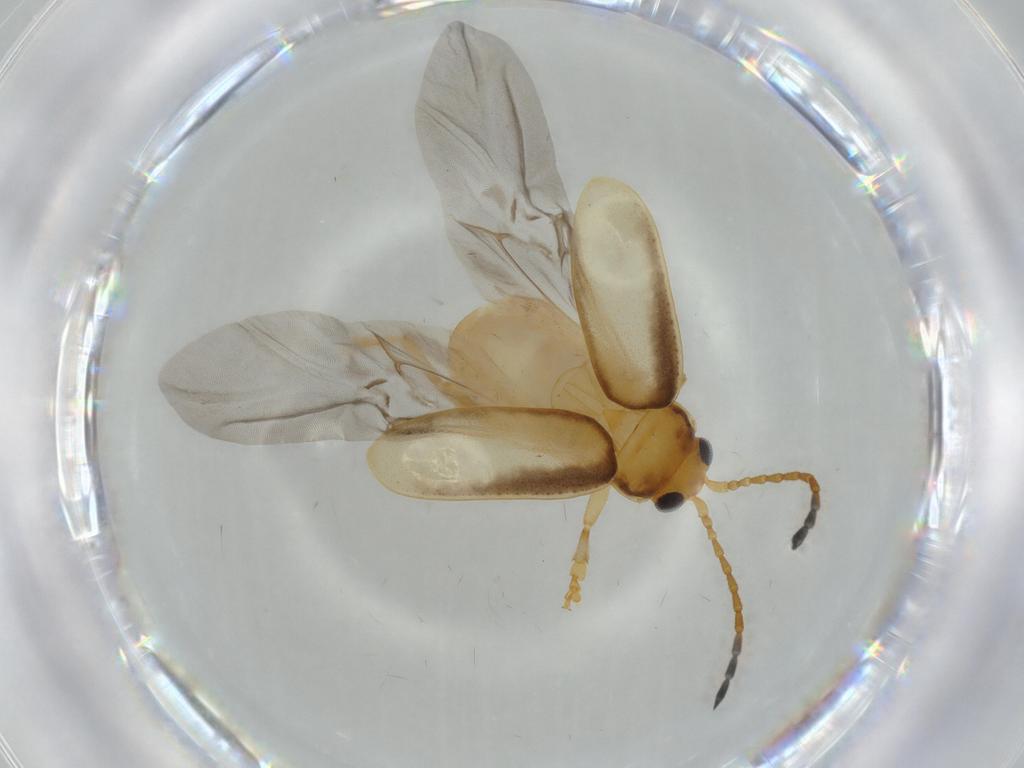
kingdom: Animalia
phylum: Arthropoda
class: Insecta
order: Coleoptera
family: Chrysomelidae
